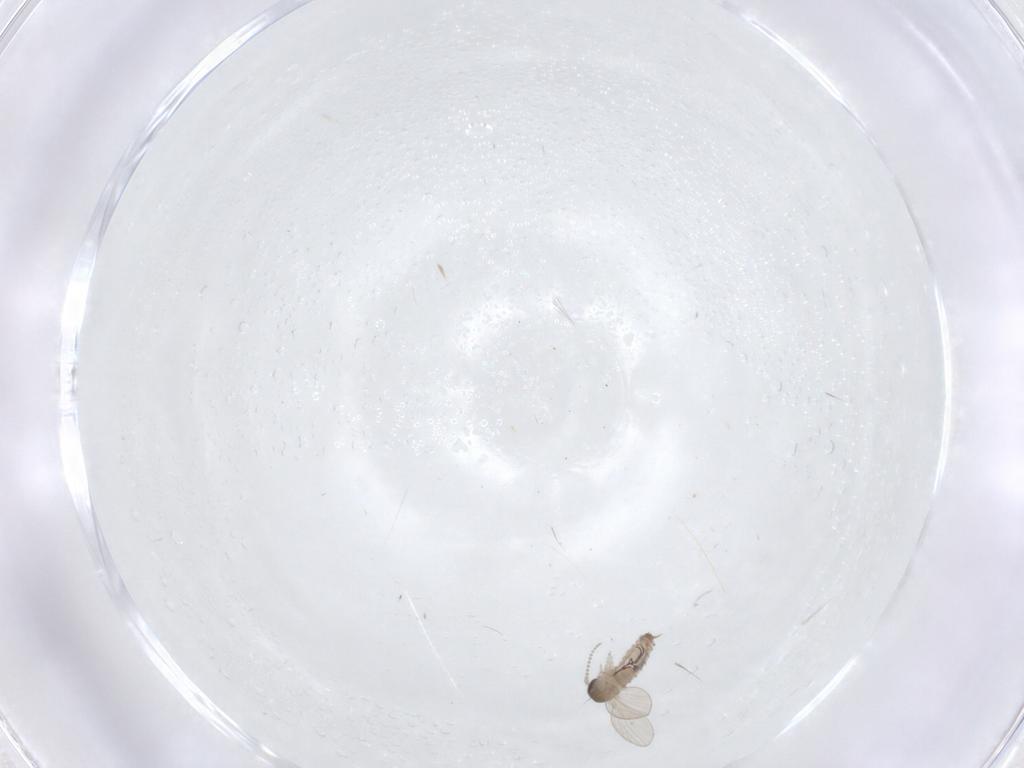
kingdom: Animalia
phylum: Arthropoda
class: Insecta
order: Diptera
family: Psychodidae
